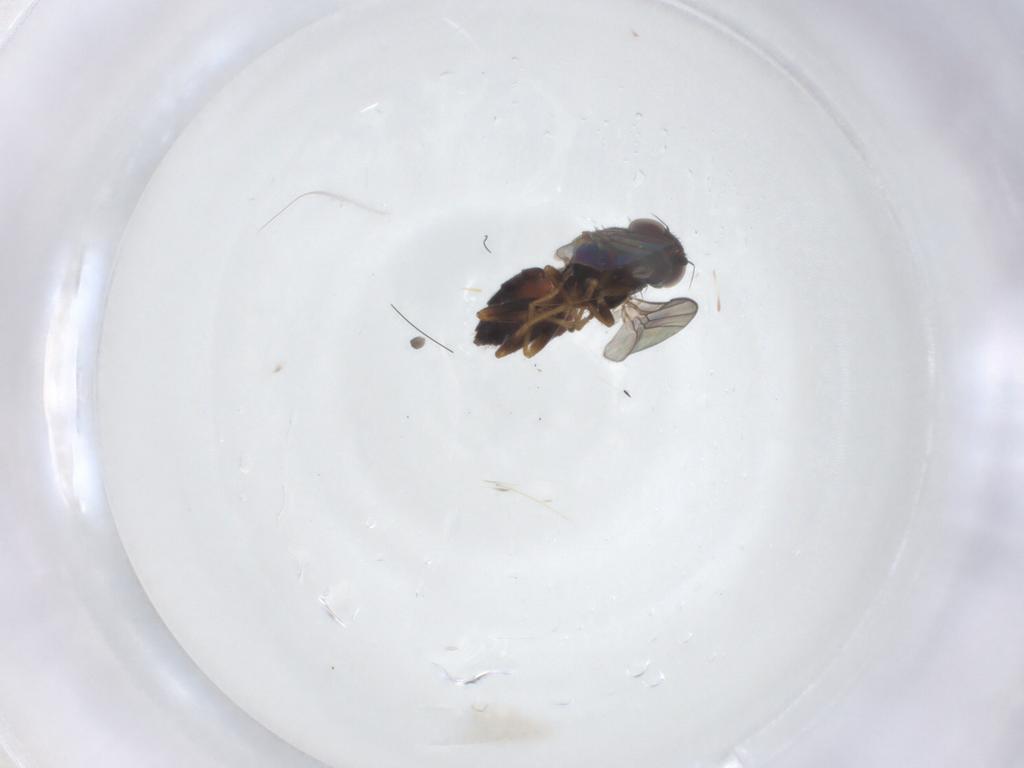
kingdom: Animalia
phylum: Arthropoda
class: Insecta
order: Diptera
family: Chloropidae
